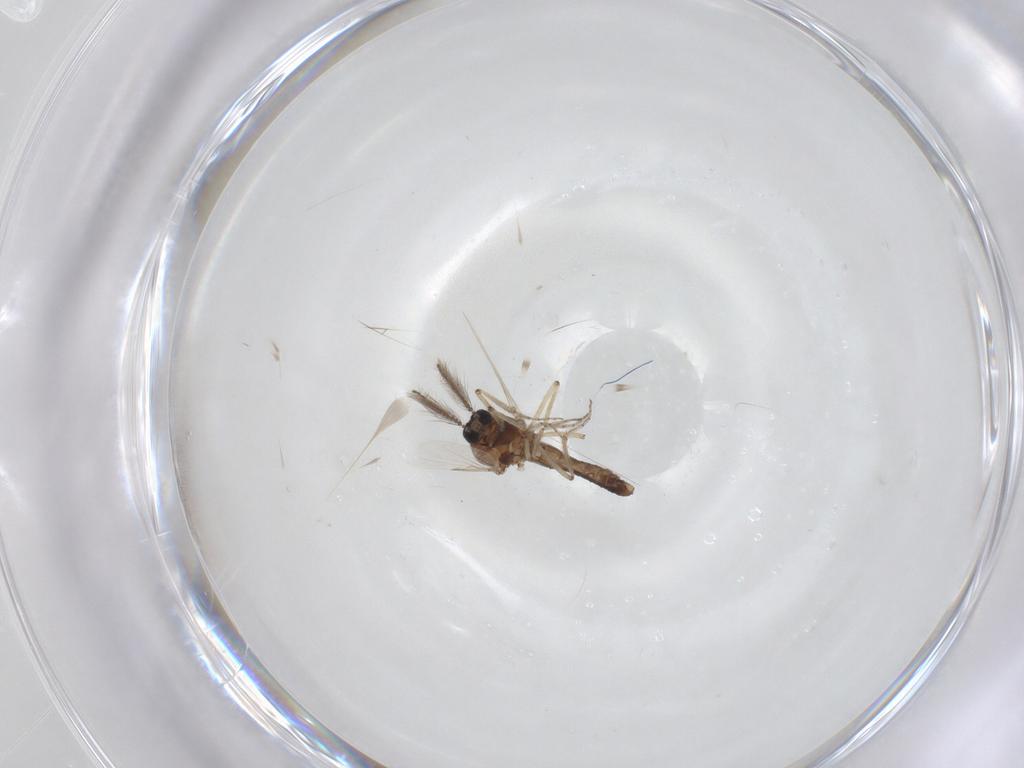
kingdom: Animalia
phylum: Arthropoda
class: Insecta
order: Diptera
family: Ceratopogonidae
